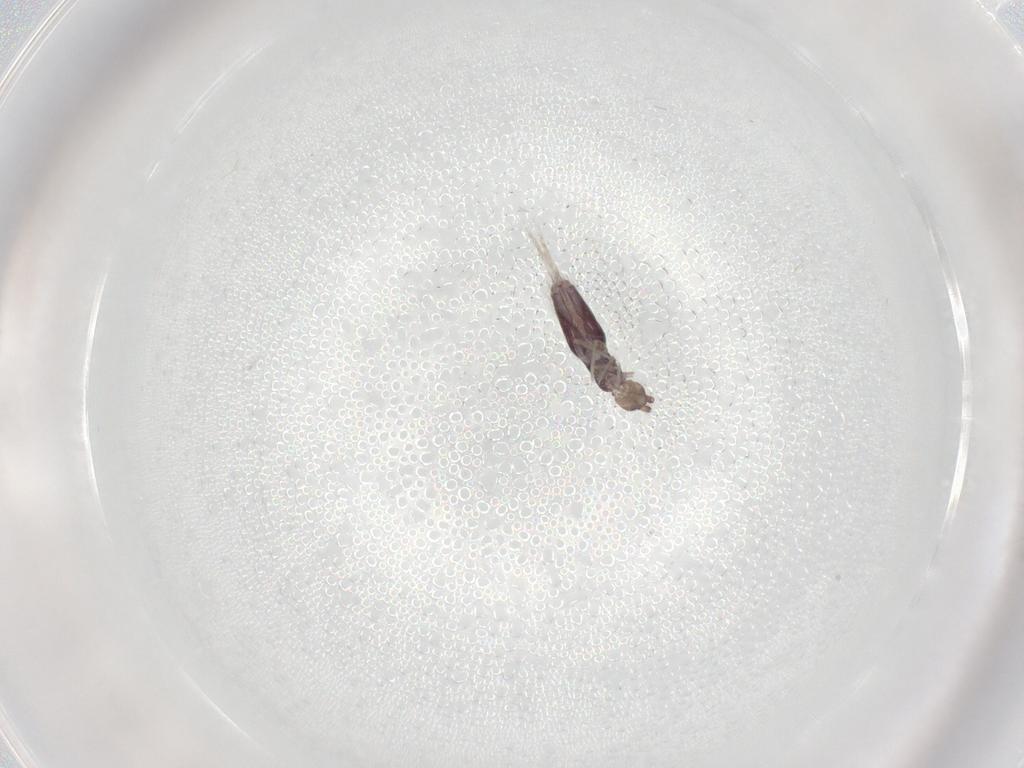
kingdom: Animalia
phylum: Arthropoda
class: Collembola
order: Entomobryomorpha
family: Entomobryidae
